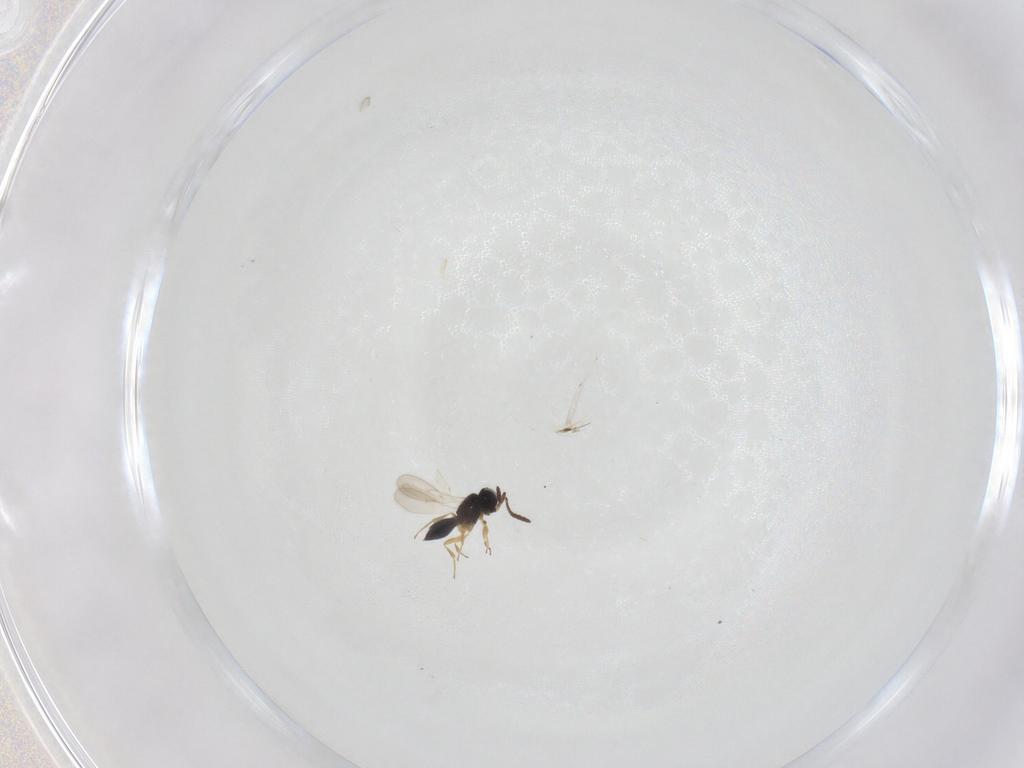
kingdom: Animalia
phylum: Arthropoda
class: Insecta
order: Hymenoptera
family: Scelionidae
